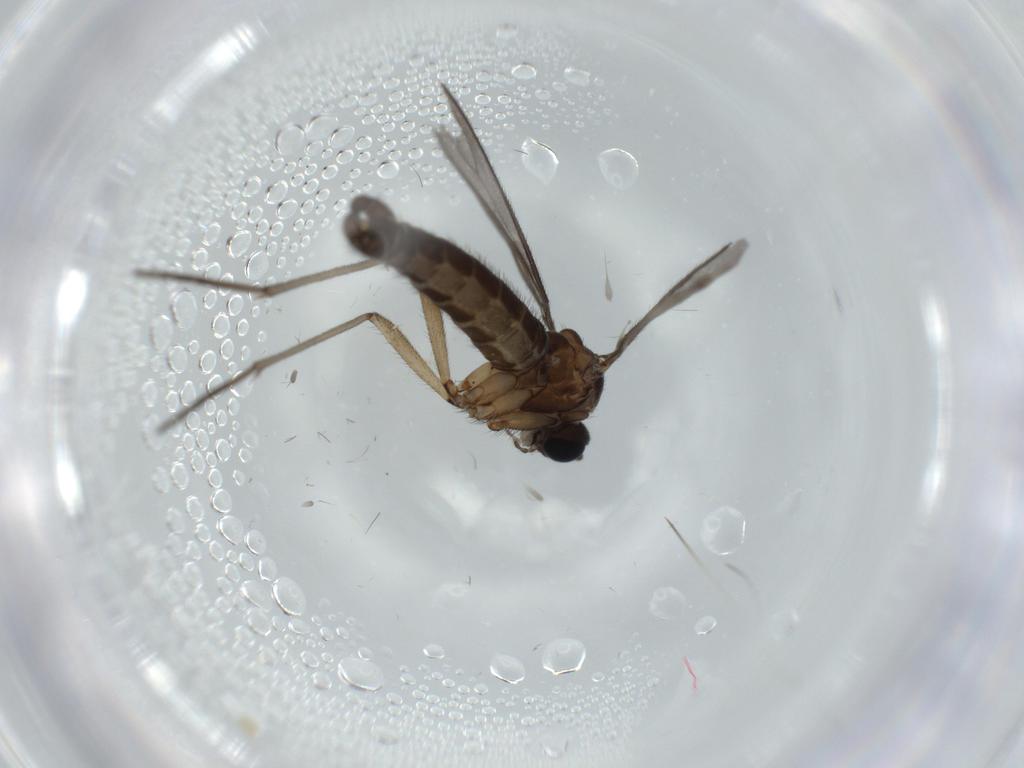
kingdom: Animalia
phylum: Arthropoda
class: Insecta
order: Diptera
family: Sciaridae
